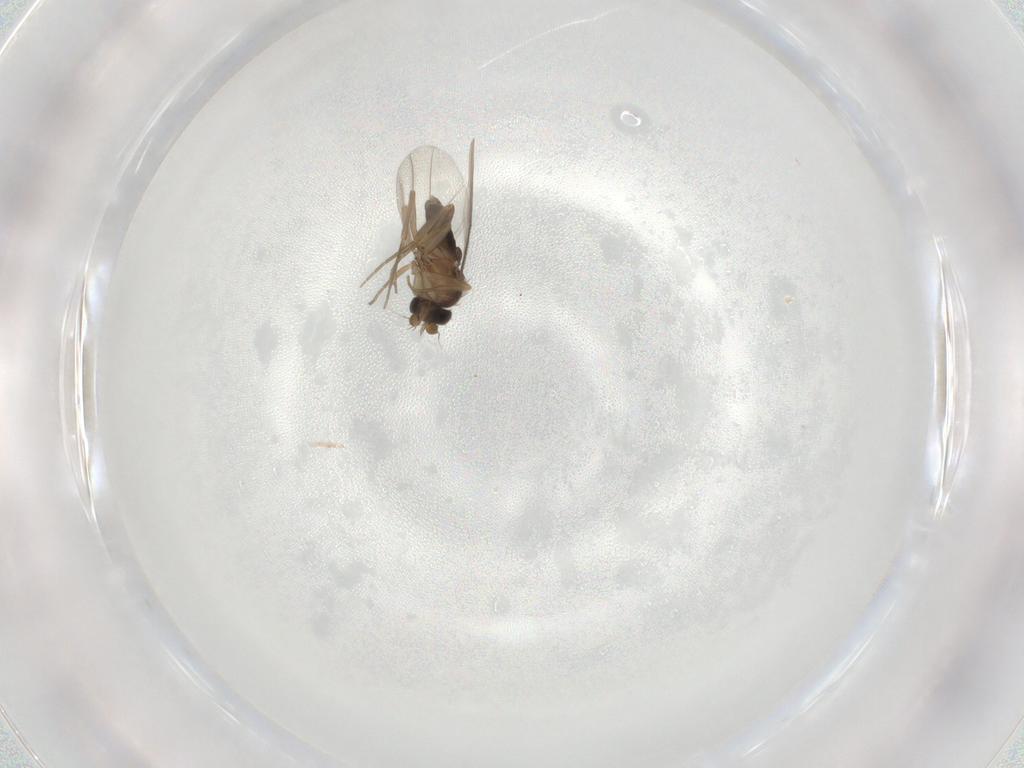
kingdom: Animalia
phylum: Arthropoda
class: Insecta
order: Diptera
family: Phoridae
